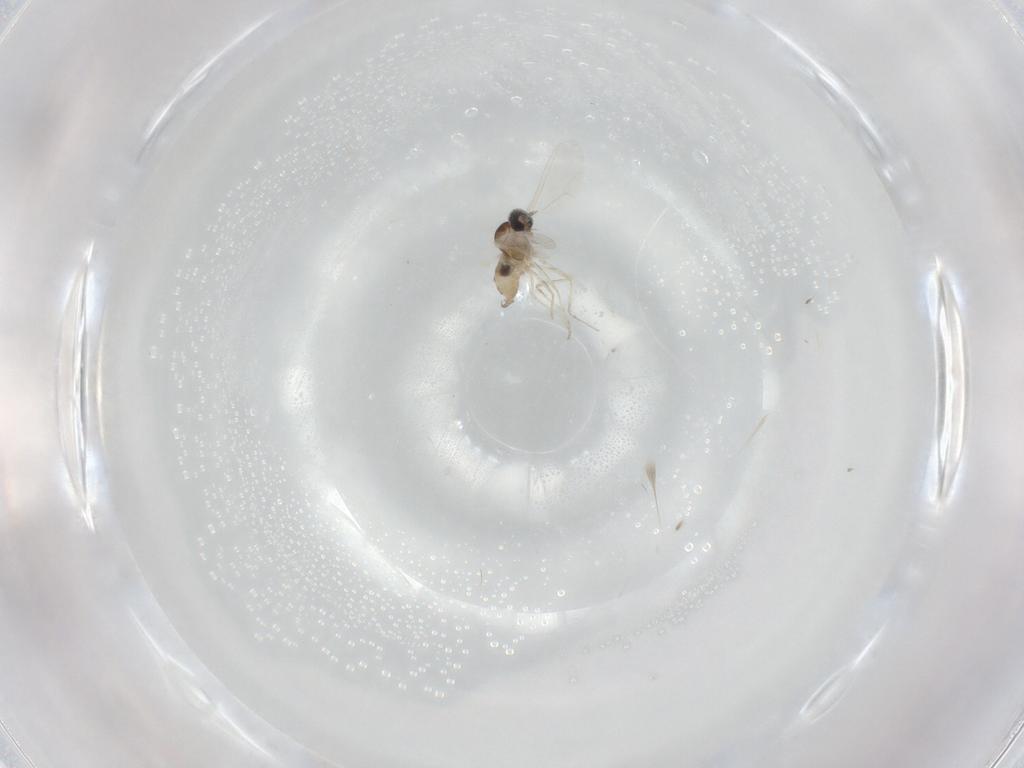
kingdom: Animalia
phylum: Arthropoda
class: Insecta
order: Diptera
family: Cecidomyiidae
